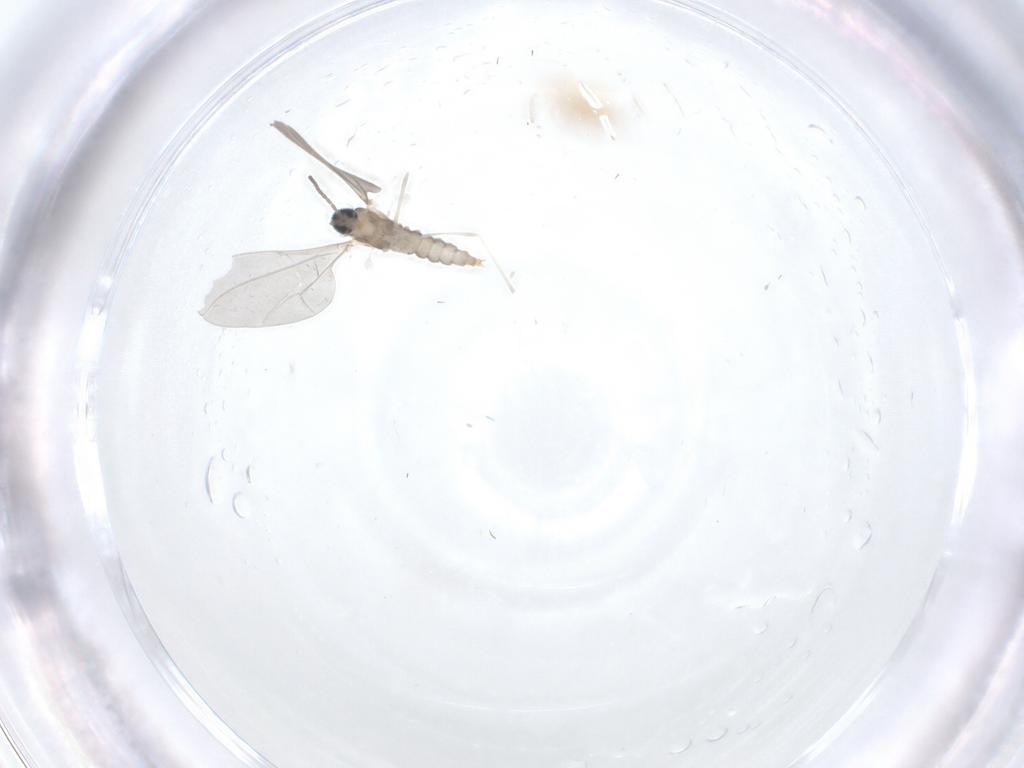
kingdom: Animalia
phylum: Arthropoda
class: Insecta
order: Diptera
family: Cecidomyiidae
